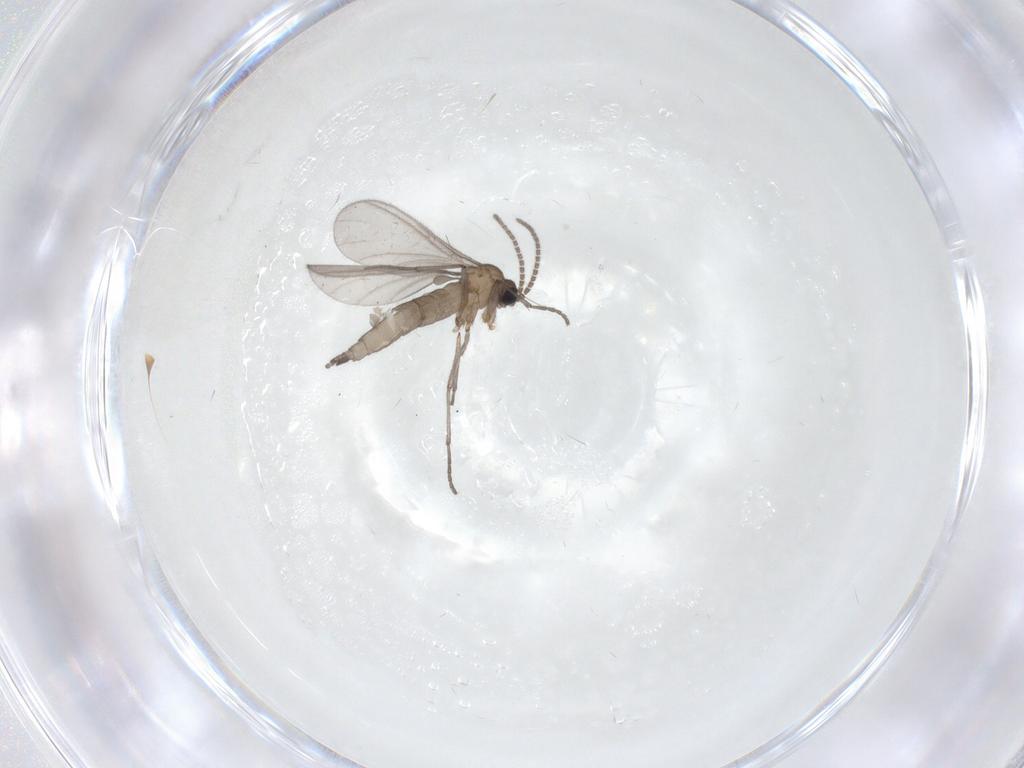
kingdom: Animalia
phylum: Arthropoda
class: Insecta
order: Diptera
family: Sciaridae
